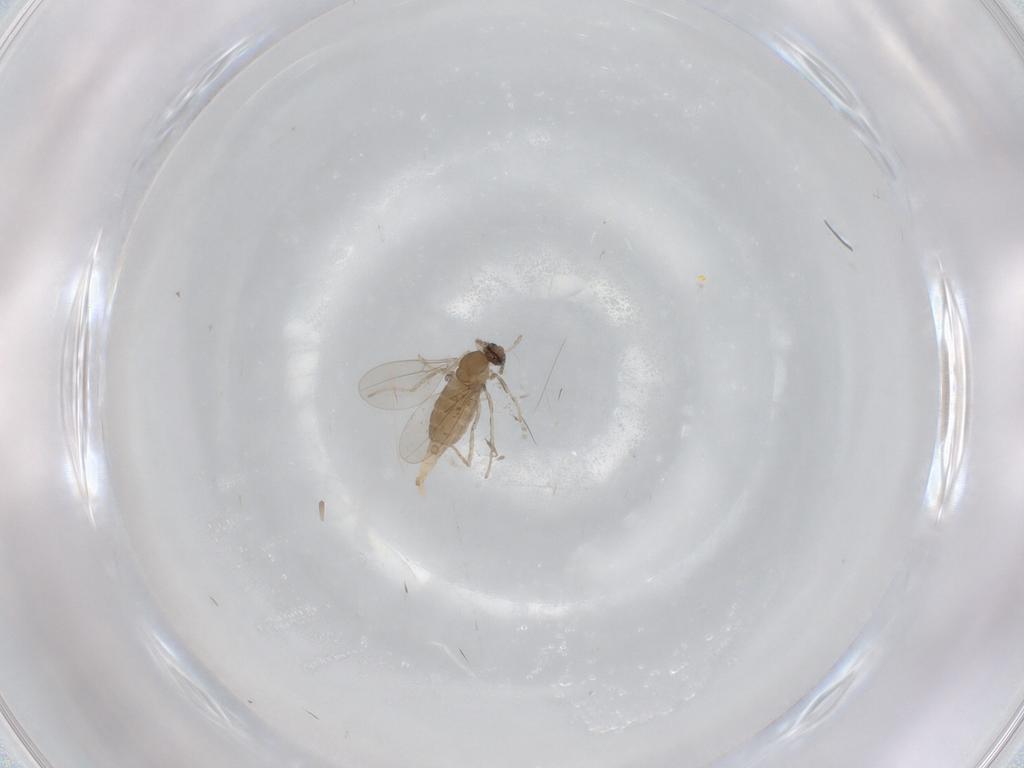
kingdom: Animalia
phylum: Arthropoda
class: Insecta
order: Diptera
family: Cecidomyiidae
